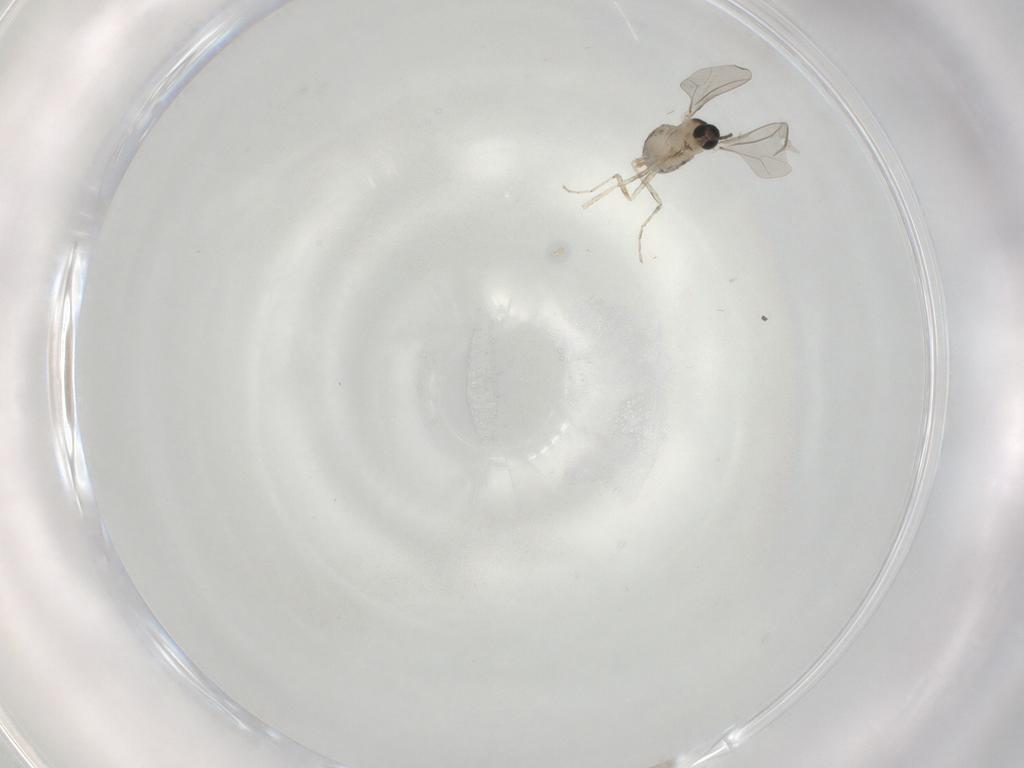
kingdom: Animalia
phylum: Arthropoda
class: Insecta
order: Diptera
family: Cecidomyiidae
